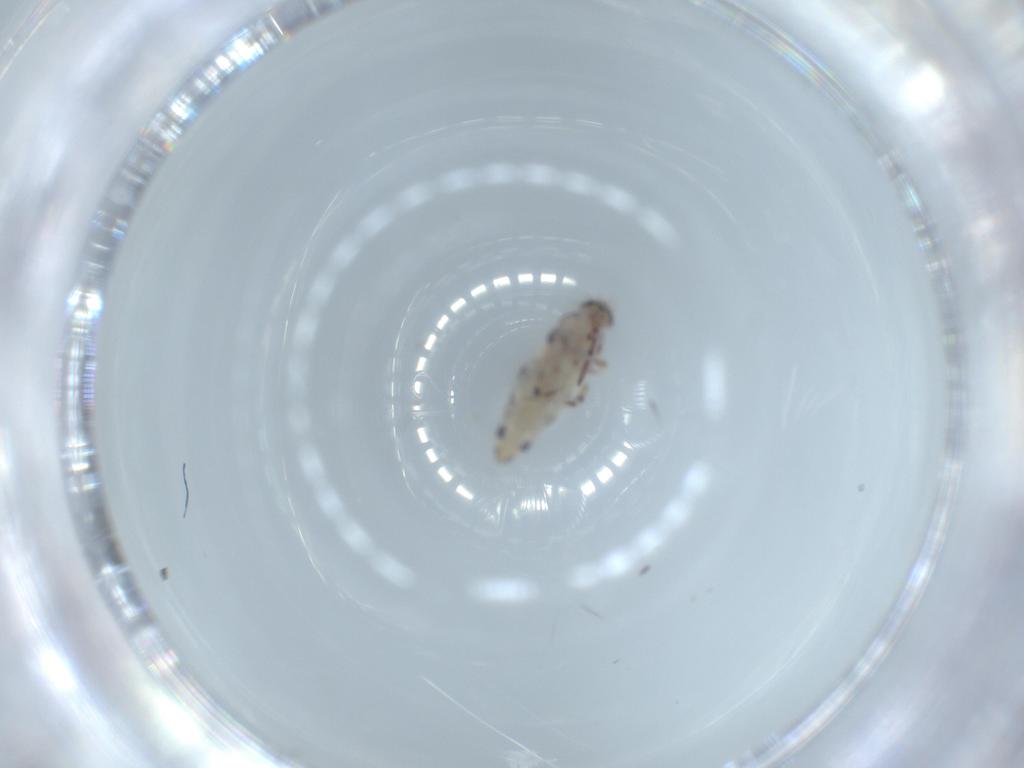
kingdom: Animalia
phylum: Arthropoda
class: Collembola
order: Entomobryomorpha
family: Entomobryidae
